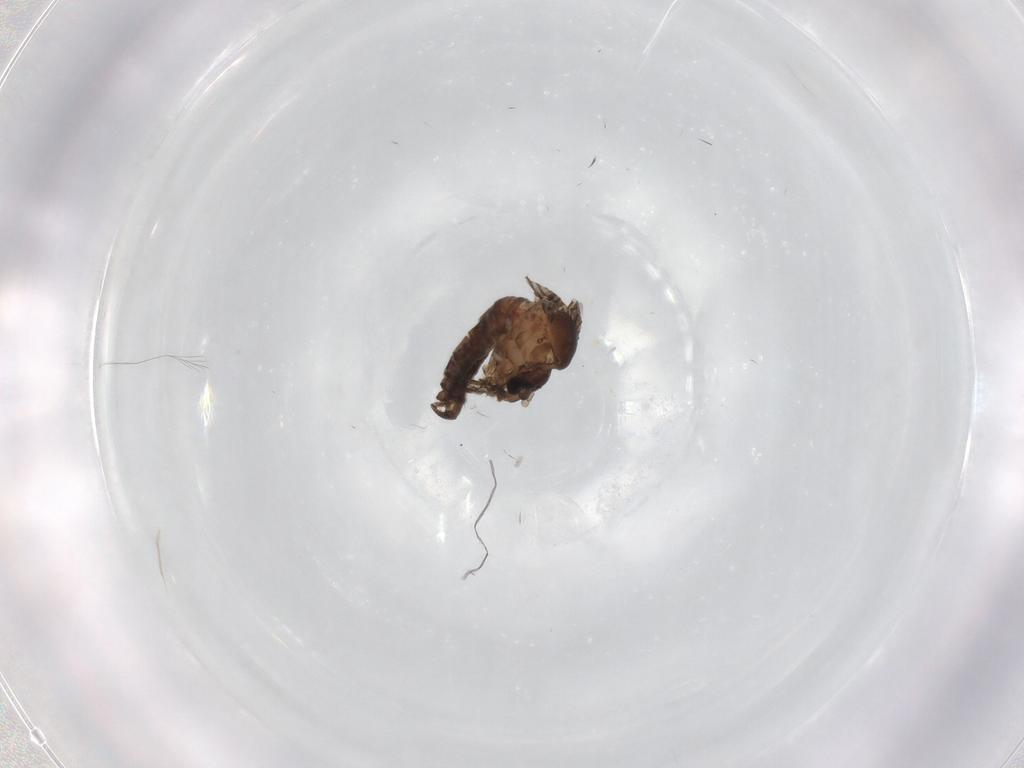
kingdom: Animalia
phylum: Arthropoda
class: Insecta
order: Diptera
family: Psychodidae
